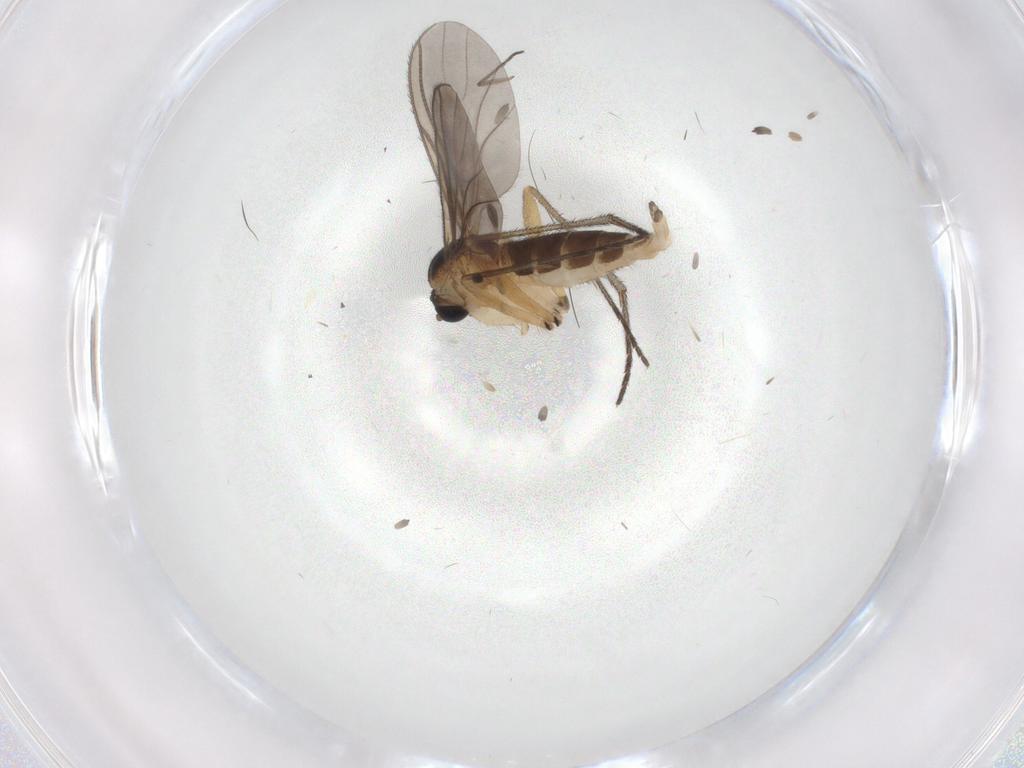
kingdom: Animalia
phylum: Arthropoda
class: Insecta
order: Diptera
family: Sciaridae
